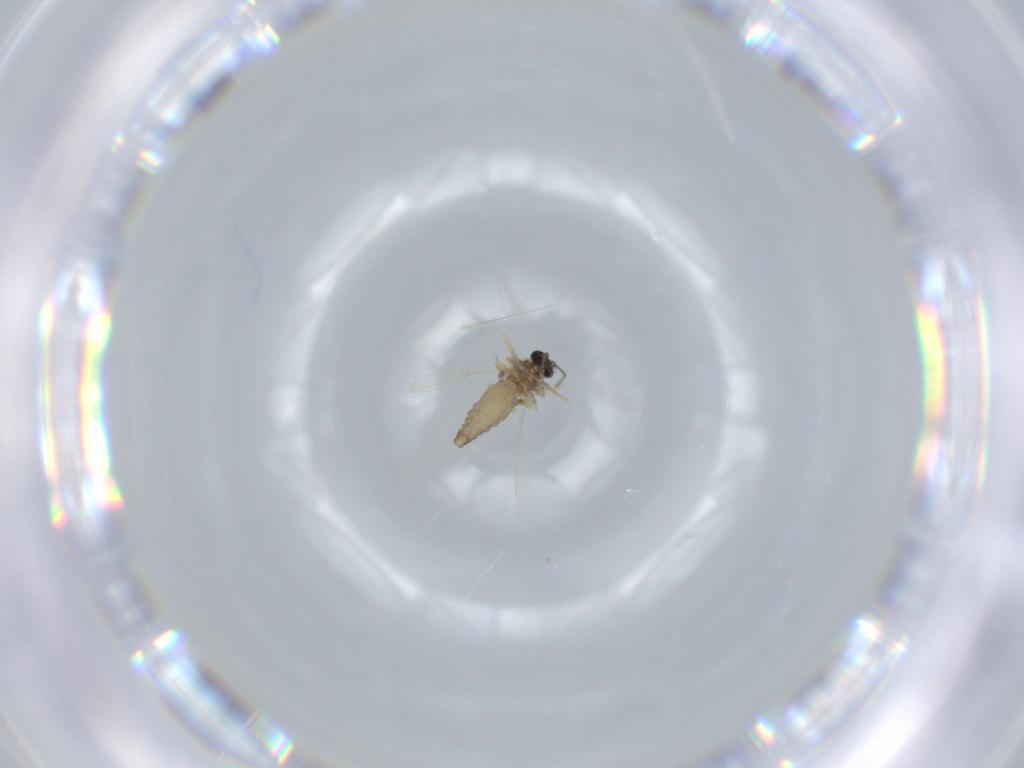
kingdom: Animalia
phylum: Arthropoda
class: Insecta
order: Diptera
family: Ceratopogonidae
